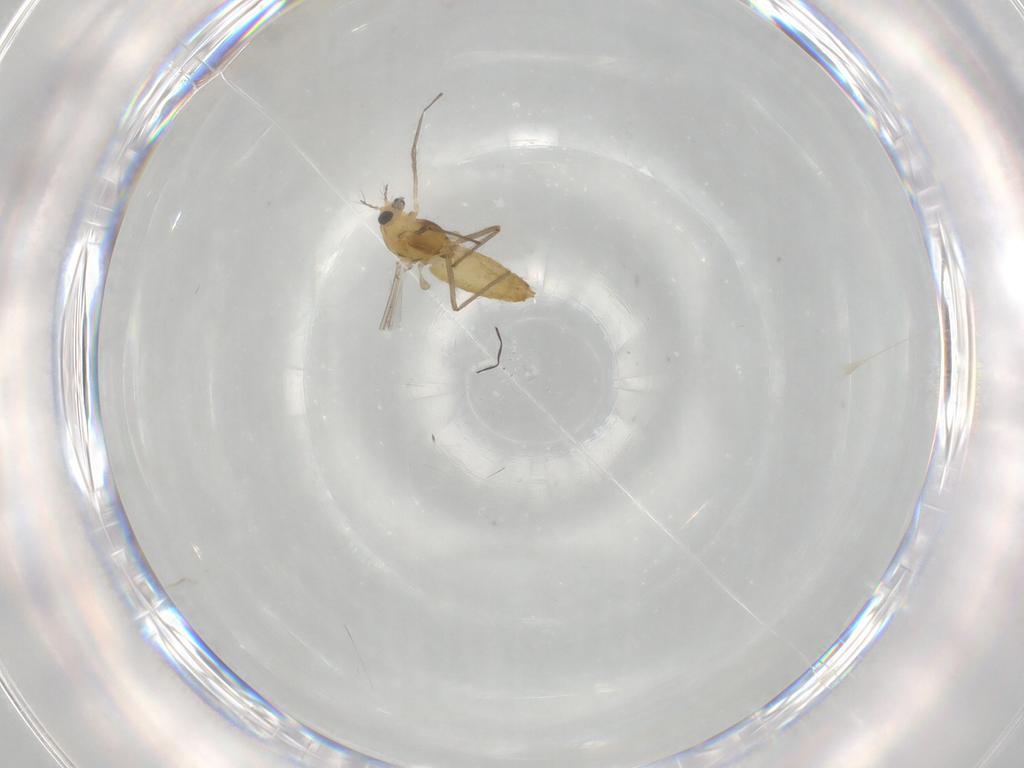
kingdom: Animalia
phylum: Arthropoda
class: Insecta
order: Diptera
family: Chironomidae
